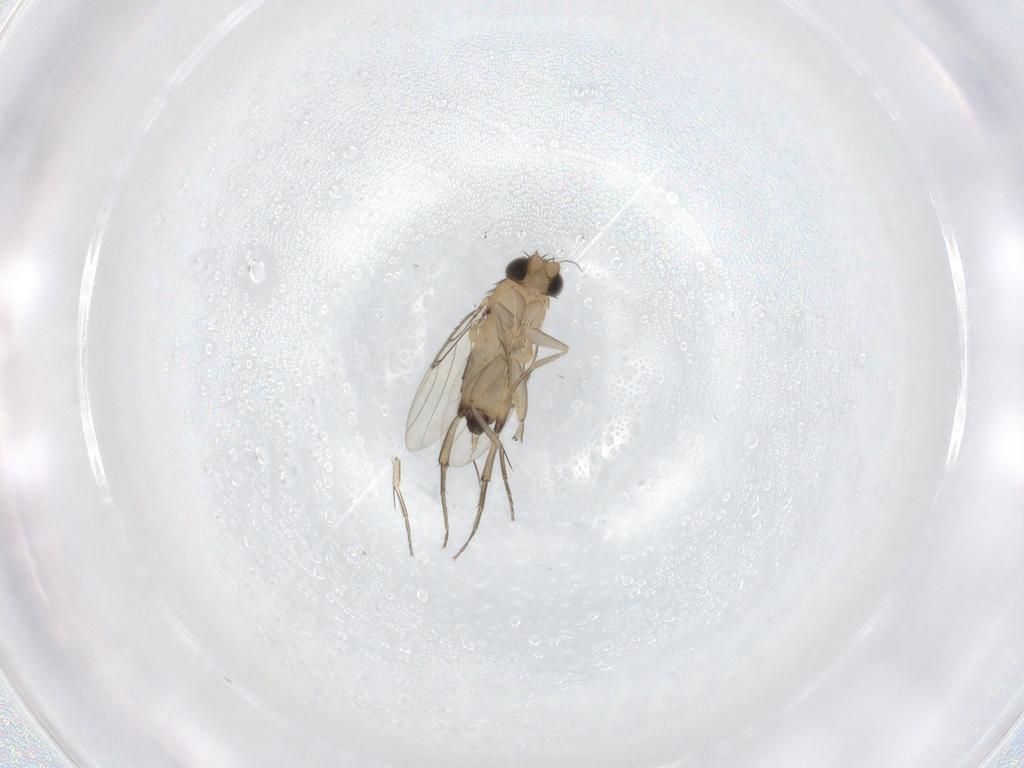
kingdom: Animalia
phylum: Arthropoda
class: Insecta
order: Diptera
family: Phoridae
